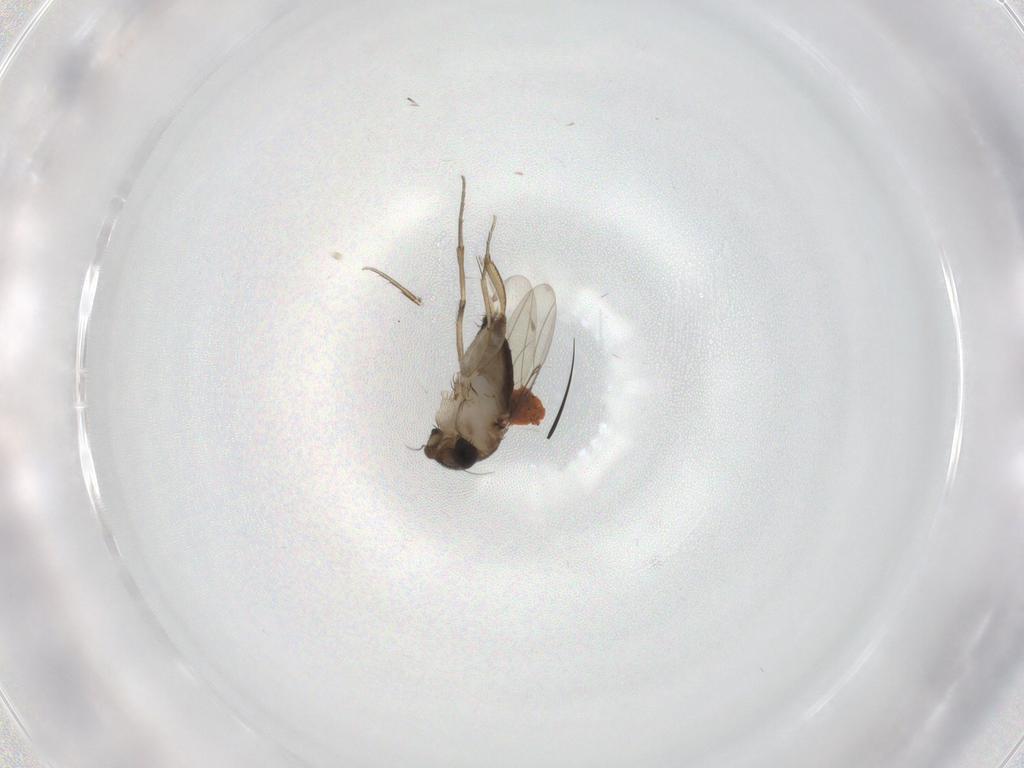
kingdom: Animalia
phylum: Arthropoda
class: Insecta
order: Diptera
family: Phoridae
